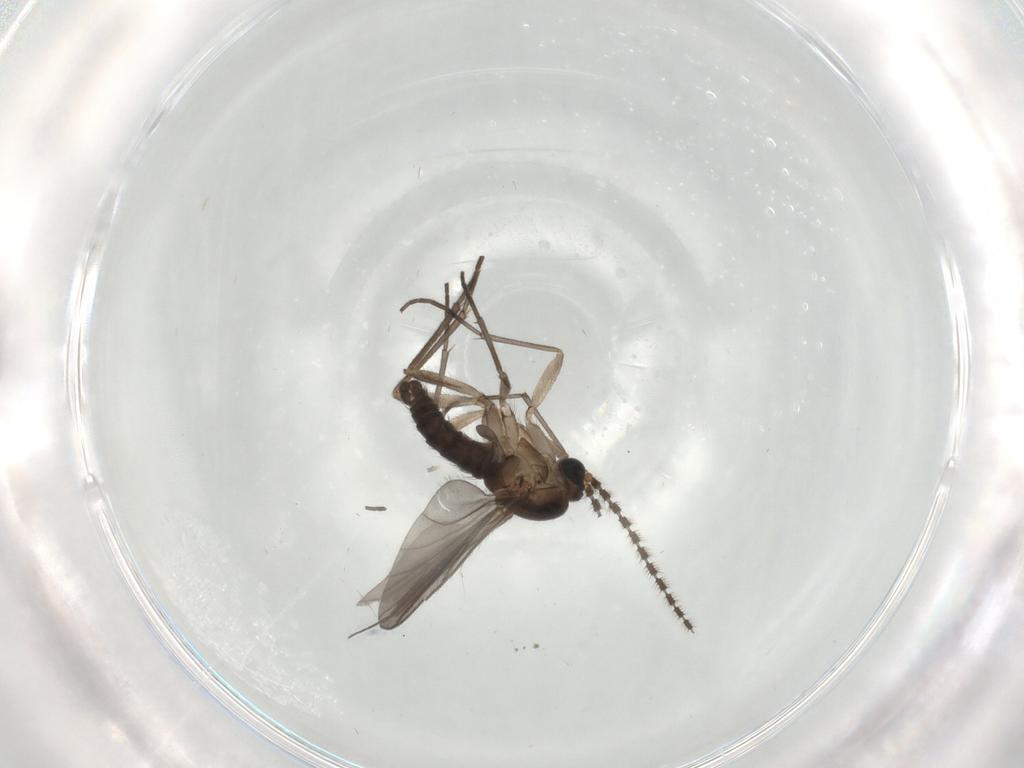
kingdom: Animalia
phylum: Arthropoda
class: Insecta
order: Diptera
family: Sciaridae
